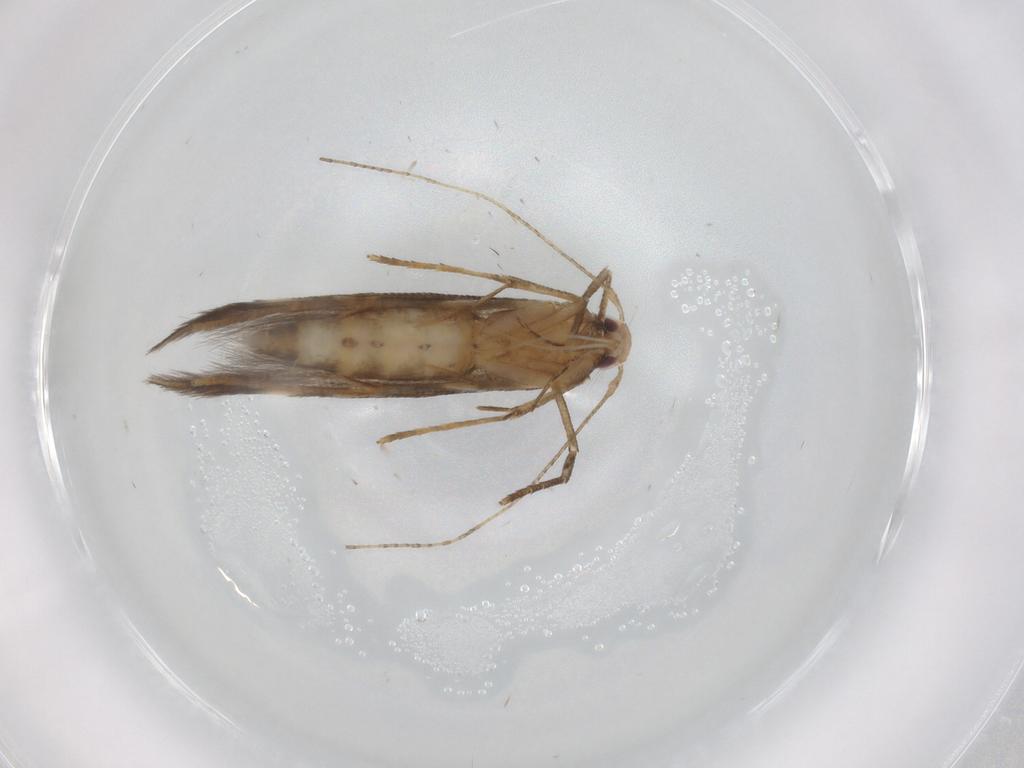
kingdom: Animalia
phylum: Arthropoda
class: Insecta
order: Lepidoptera
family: Cosmopterigidae
